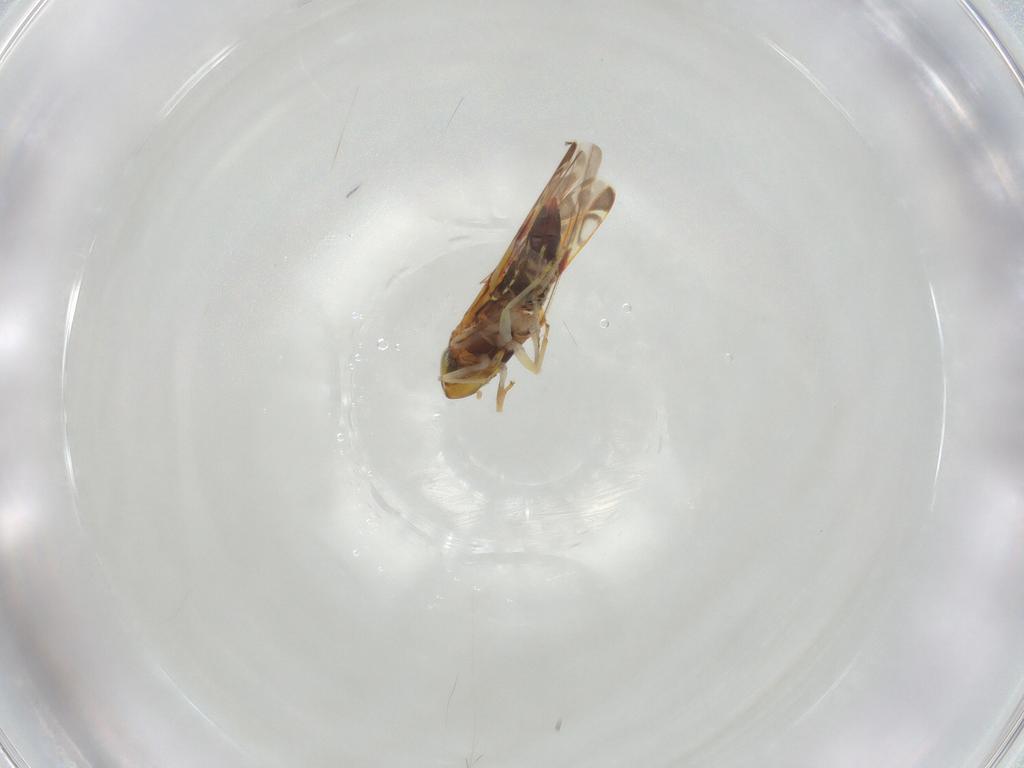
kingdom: Animalia
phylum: Arthropoda
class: Insecta
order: Hemiptera
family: Cicadellidae
